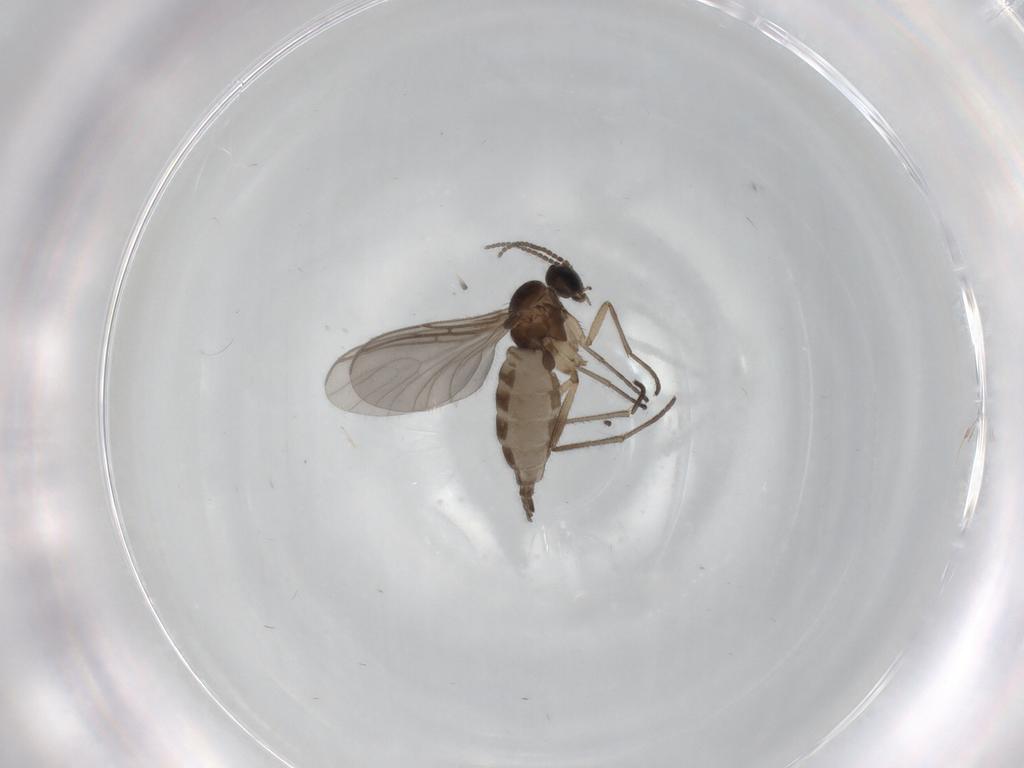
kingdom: Animalia
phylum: Arthropoda
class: Insecta
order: Diptera
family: Sciaridae
